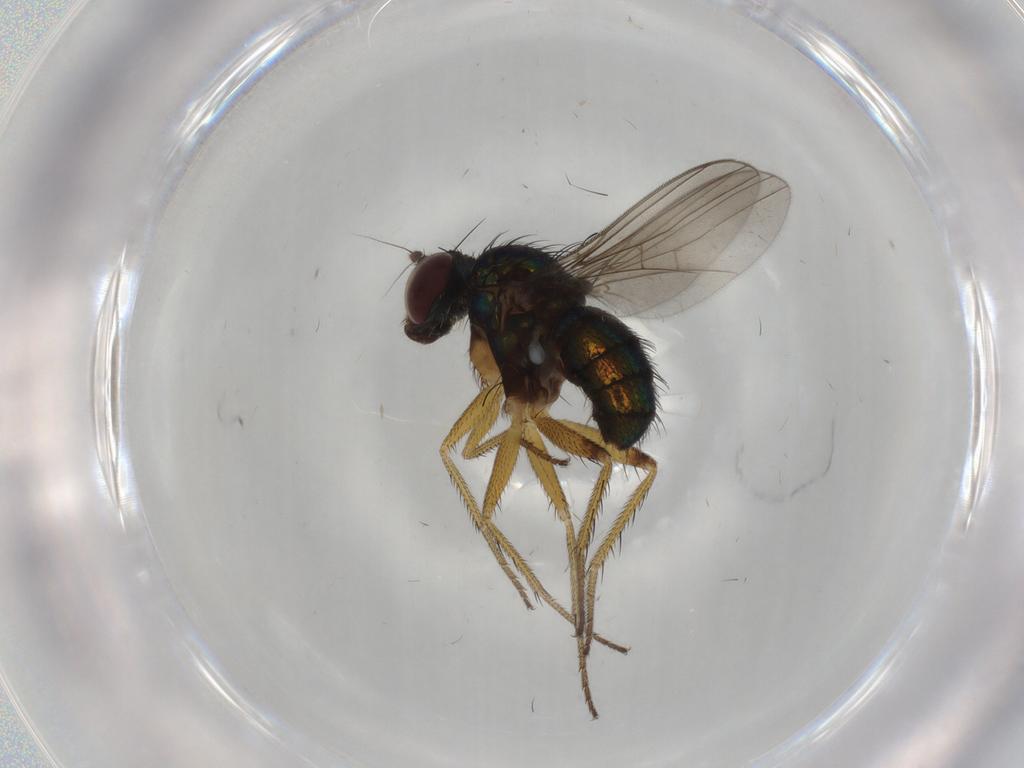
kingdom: Animalia
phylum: Arthropoda
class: Insecta
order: Diptera
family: Dolichopodidae
